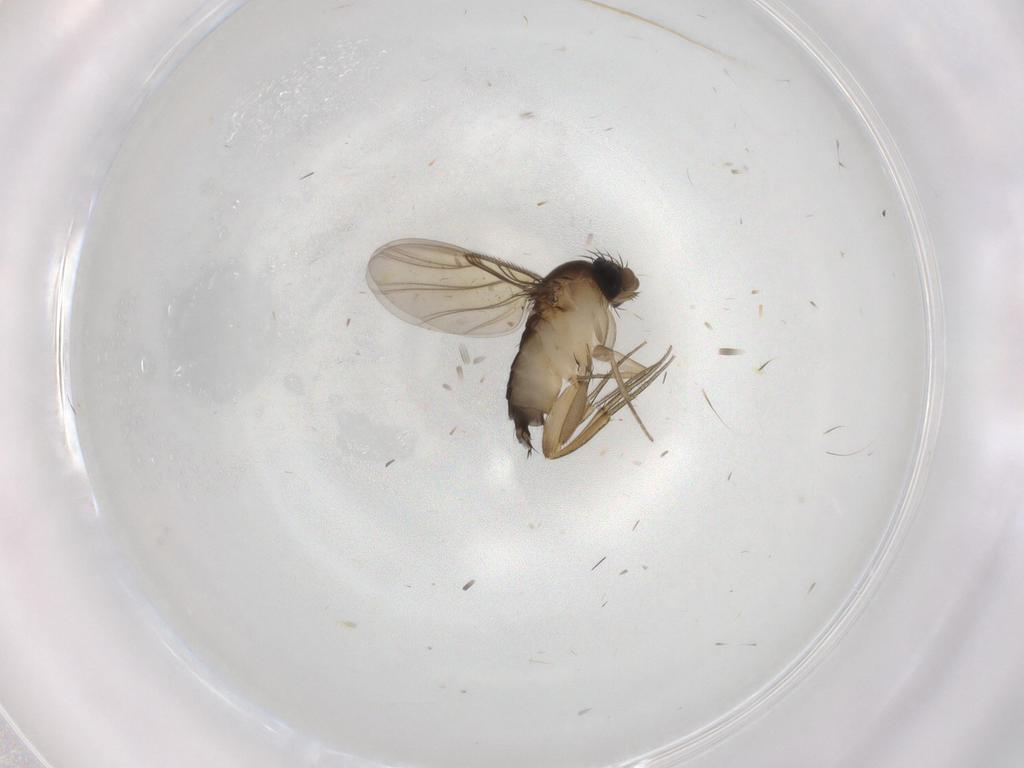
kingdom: Animalia
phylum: Arthropoda
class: Insecta
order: Diptera
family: Phoridae
